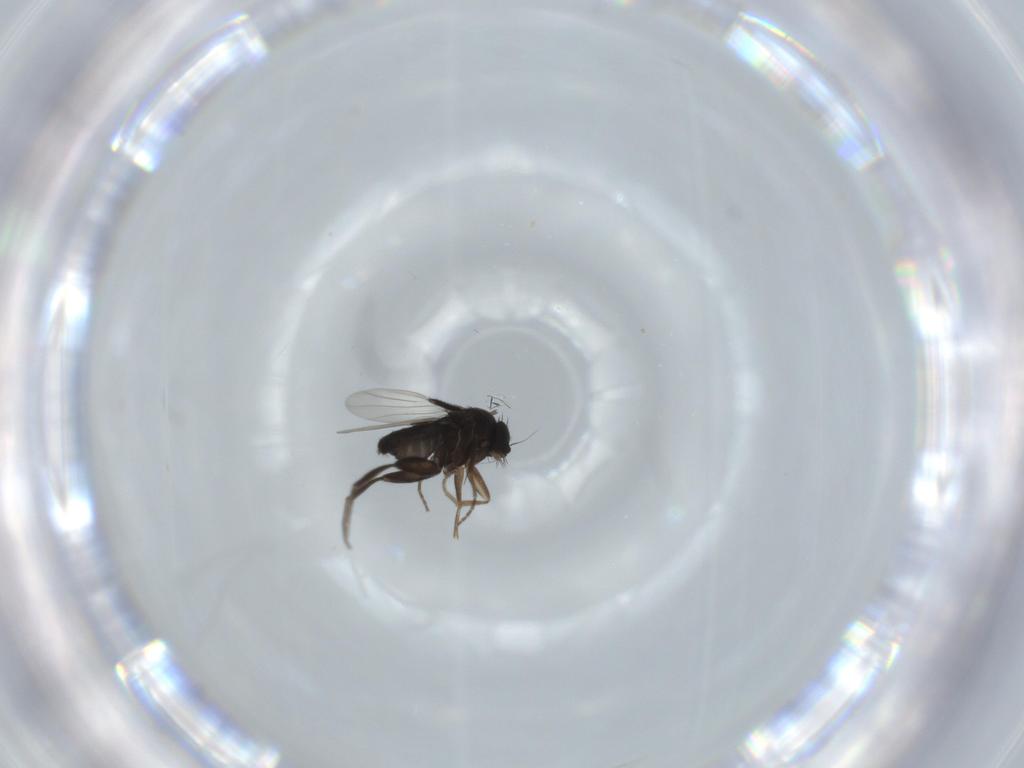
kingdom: Animalia
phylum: Arthropoda
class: Insecta
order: Diptera
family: Phoridae
